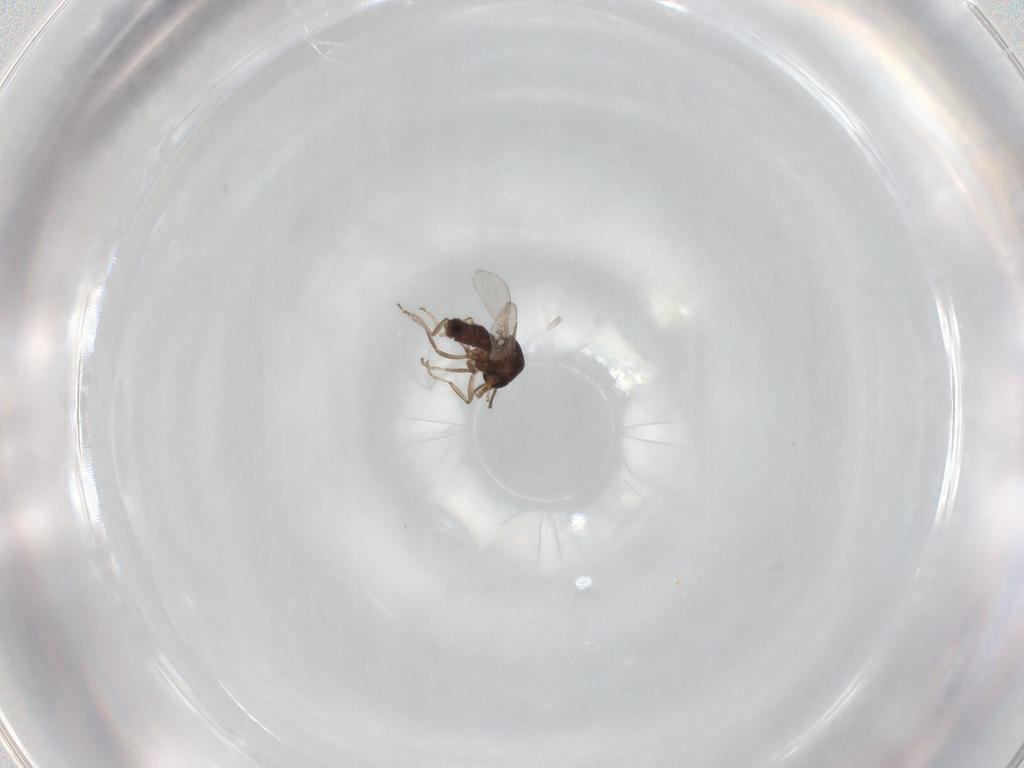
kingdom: Animalia
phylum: Arthropoda
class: Insecta
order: Diptera
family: Ceratopogonidae
